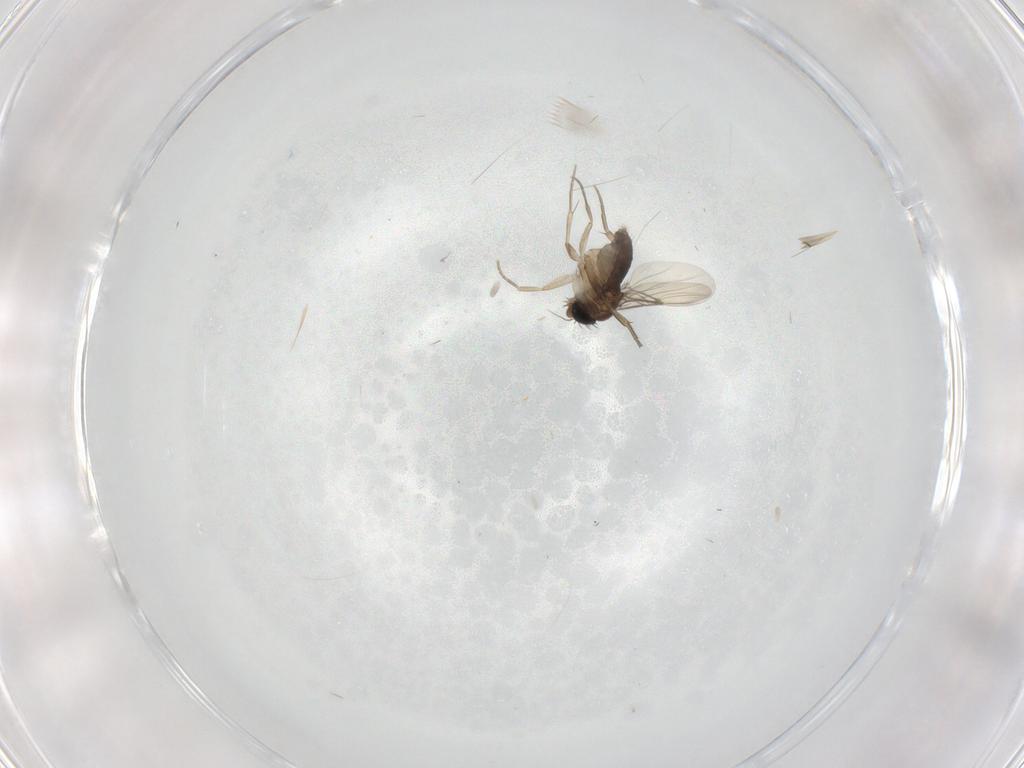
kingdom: Animalia
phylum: Arthropoda
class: Insecta
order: Diptera
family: Phoridae
